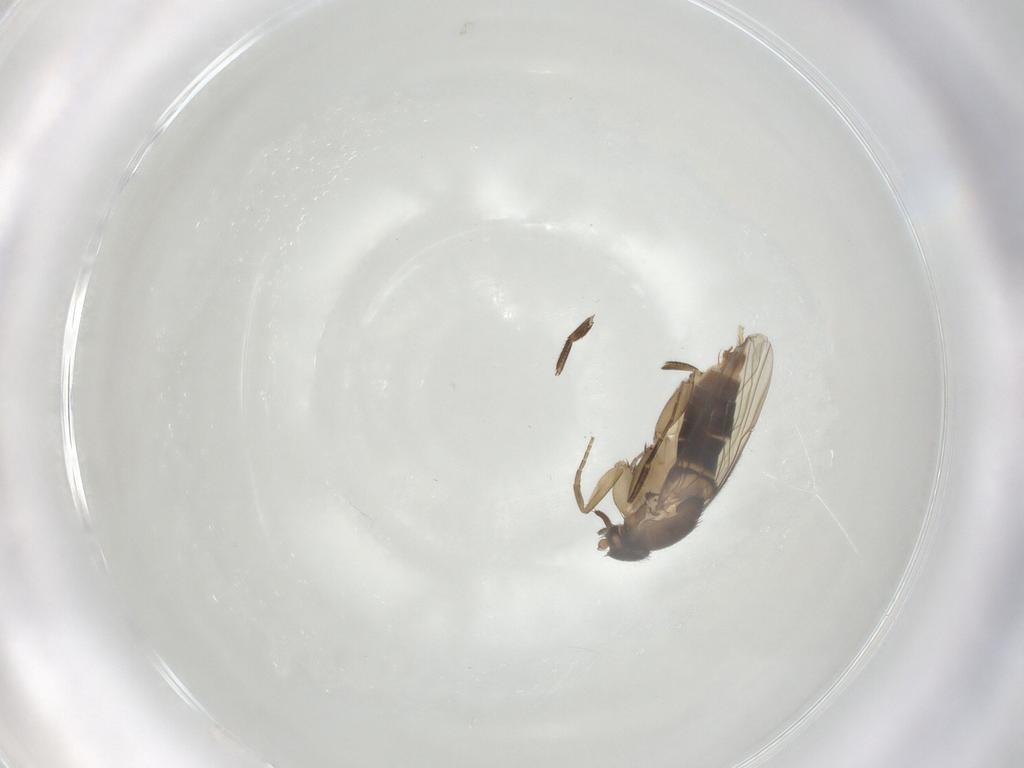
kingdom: Animalia
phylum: Arthropoda
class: Insecta
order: Diptera
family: Phoridae
